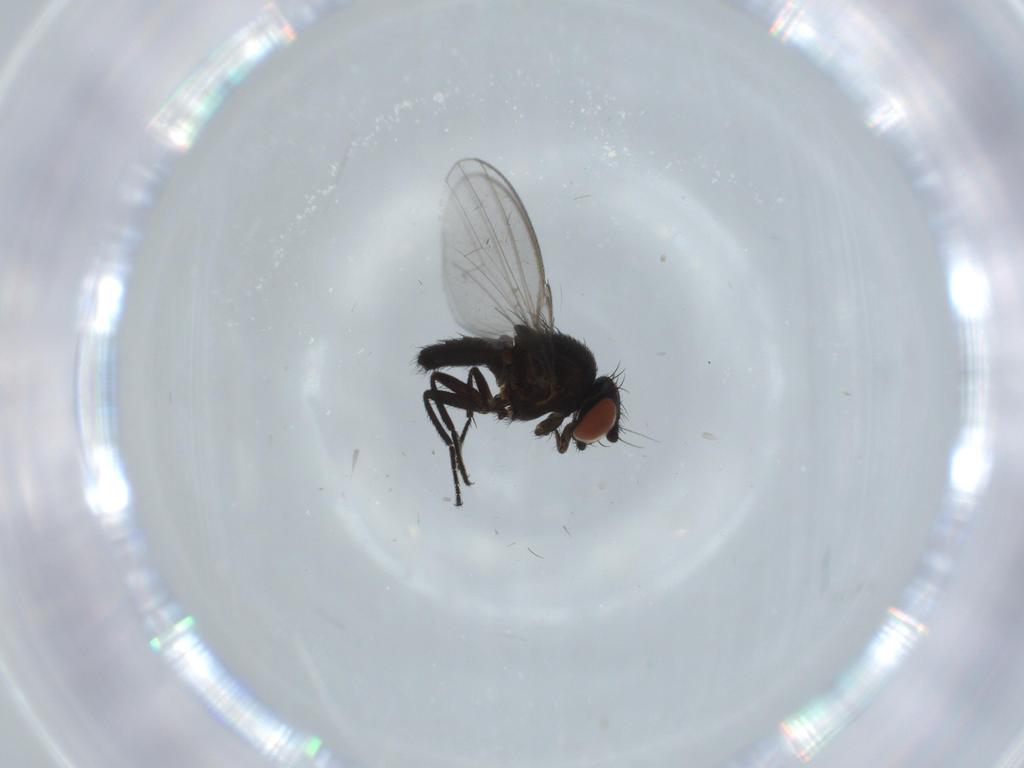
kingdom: Animalia
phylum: Arthropoda
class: Insecta
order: Diptera
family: Milichiidae
